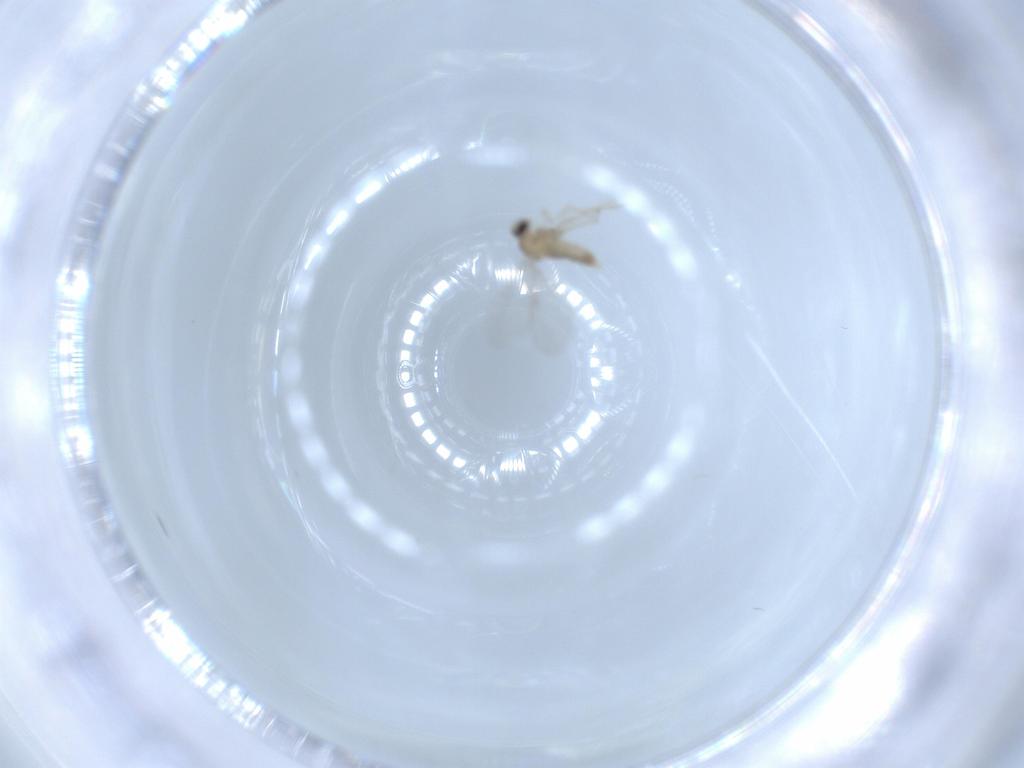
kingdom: Animalia
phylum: Arthropoda
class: Insecta
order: Diptera
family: Cecidomyiidae
